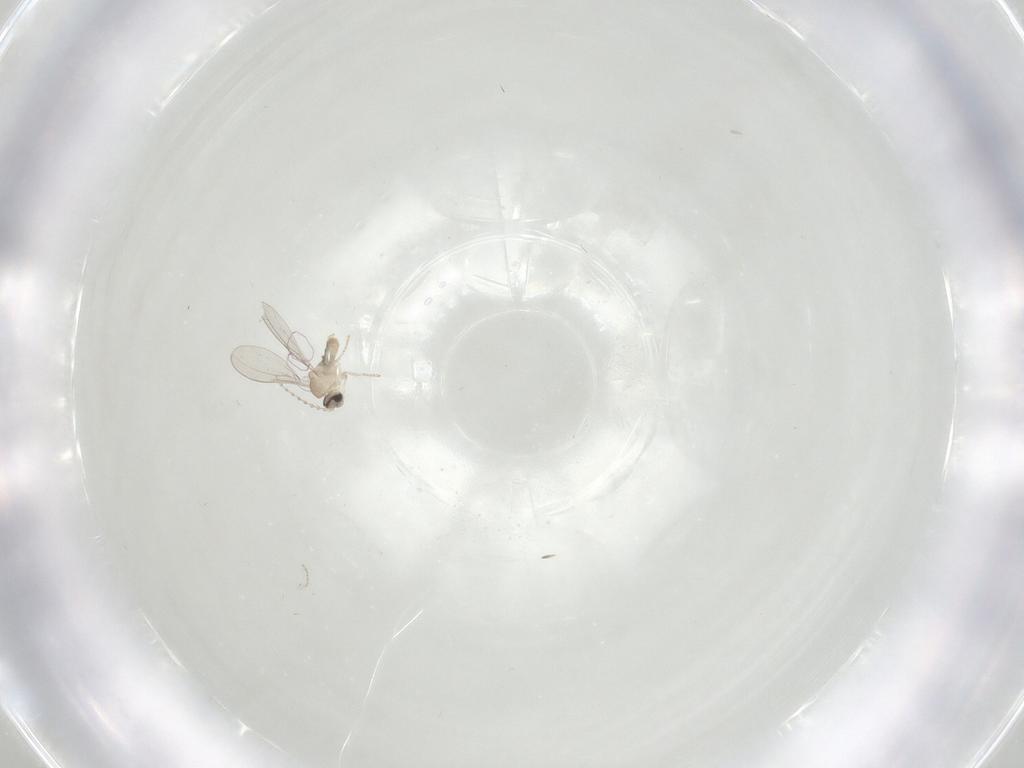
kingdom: Animalia
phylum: Arthropoda
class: Insecta
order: Diptera
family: Cecidomyiidae
